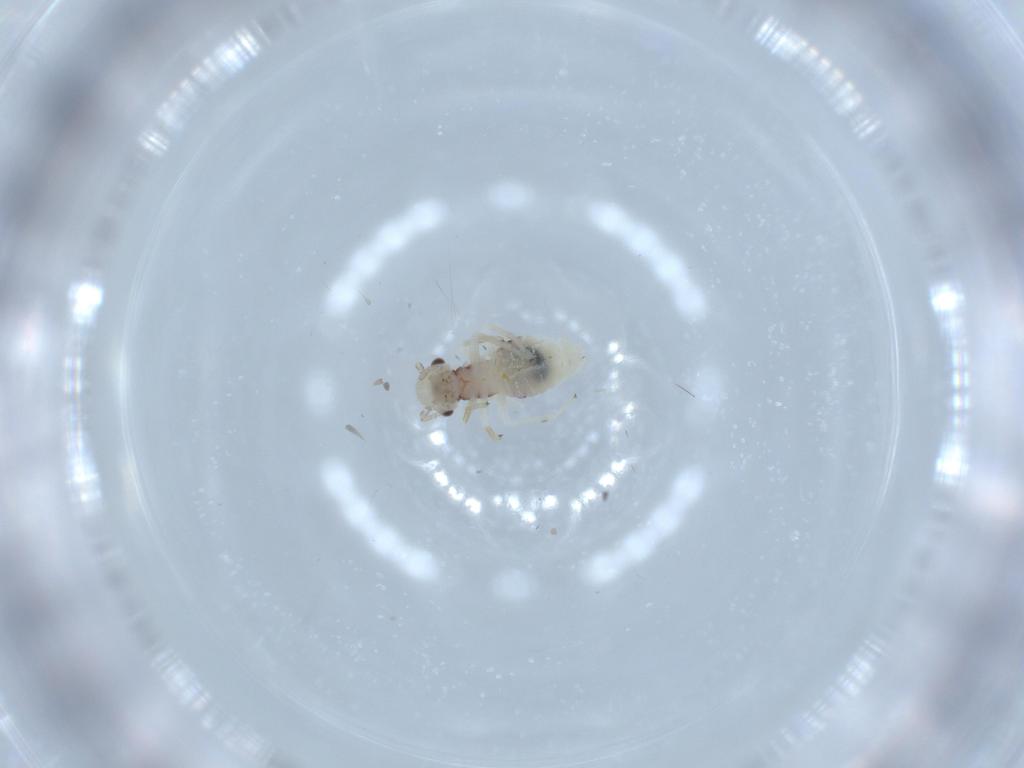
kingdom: Animalia
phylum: Arthropoda
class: Insecta
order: Psocodea
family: Caeciliusidae
